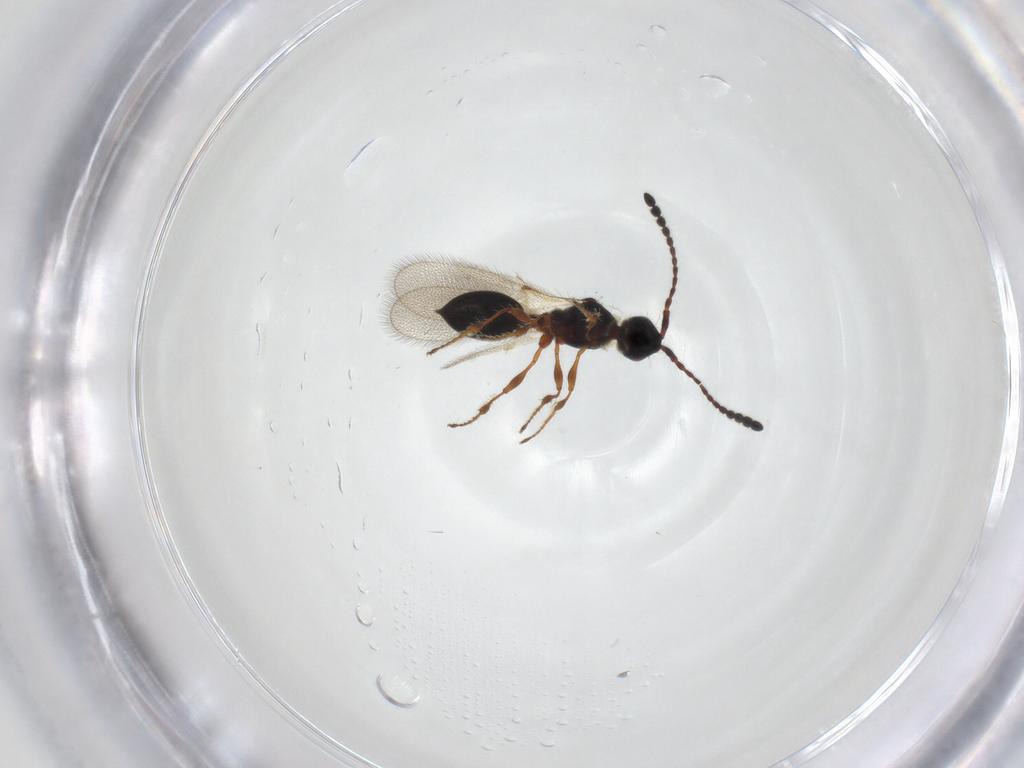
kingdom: Animalia
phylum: Arthropoda
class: Insecta
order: Hymenoptera
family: Diapriidae
